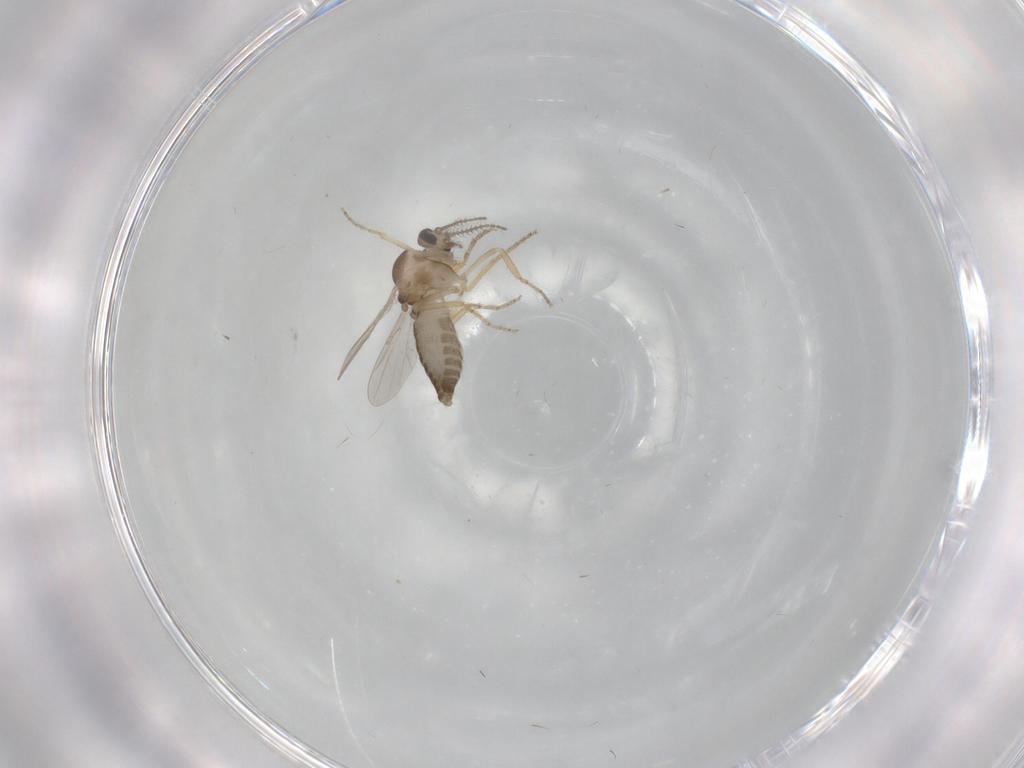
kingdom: Animalia
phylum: Arthropoda
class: Insecta
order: Diptera
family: Ceratopogonidae
